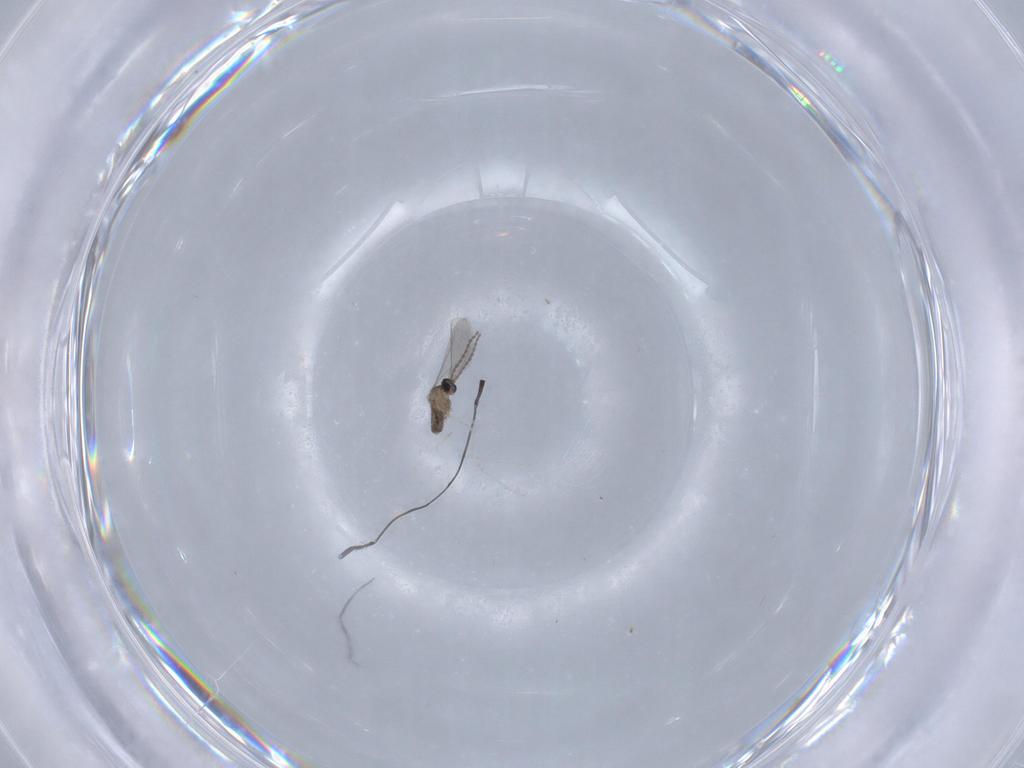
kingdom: Animalia
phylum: Arthropoda
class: Insecta
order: Diptera
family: Cecidomyiidae
